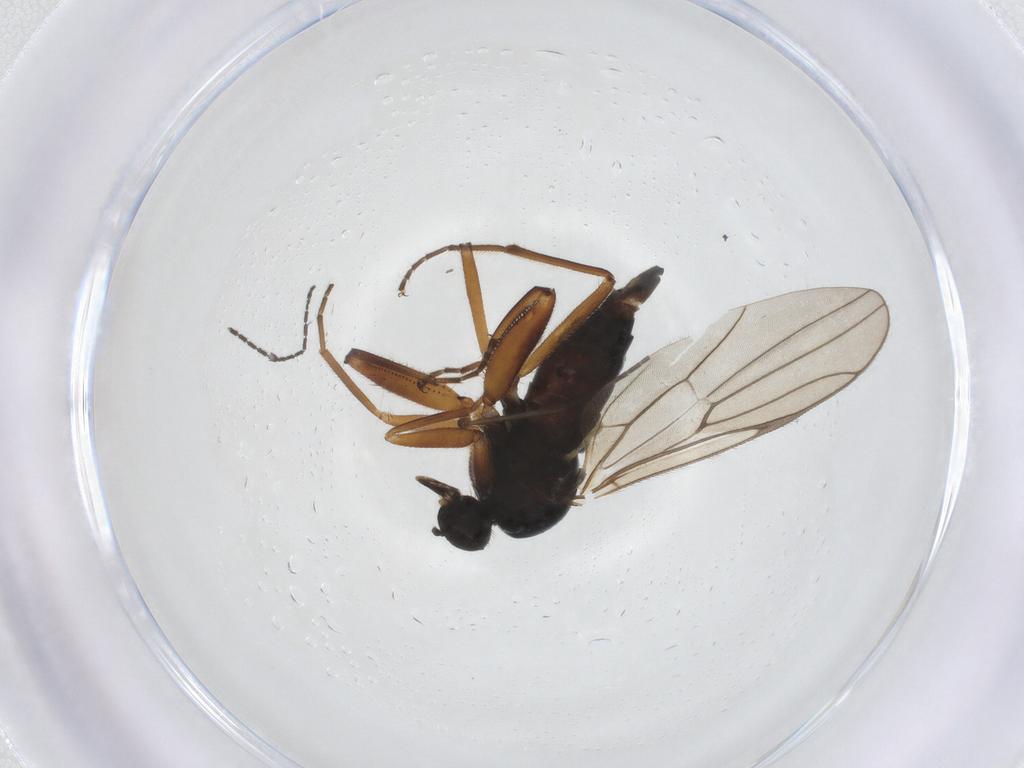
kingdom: Animalia
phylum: Arthropoda
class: Insecta
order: Diptera
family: Hybotidae
